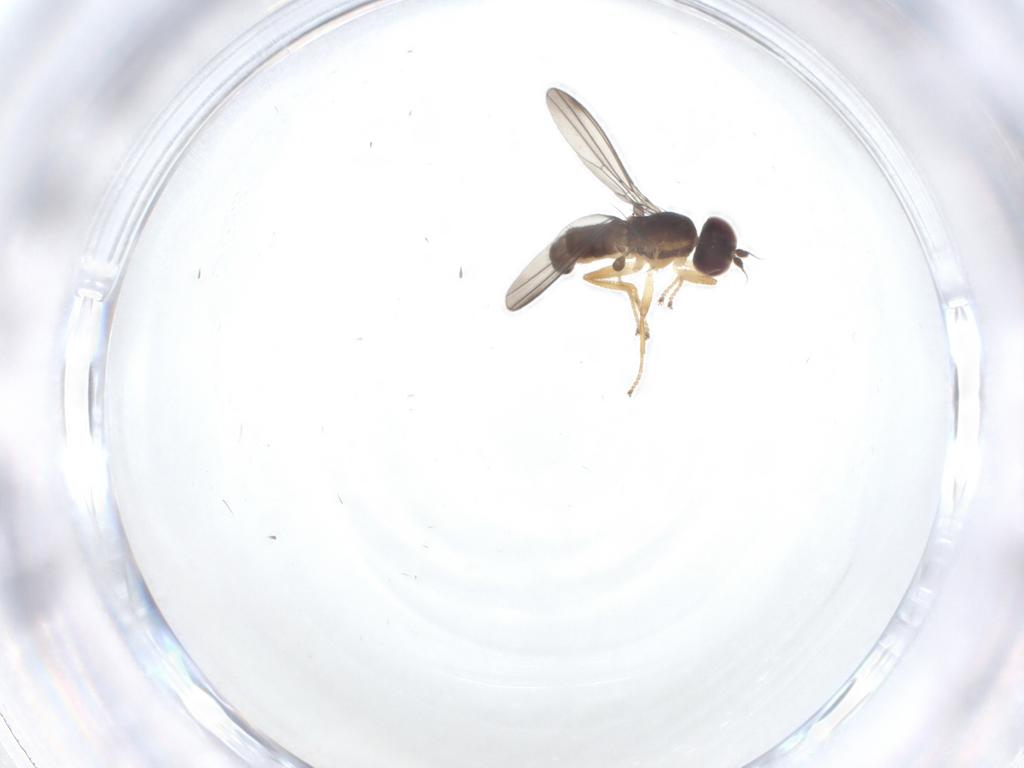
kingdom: Animalia
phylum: Arthropoda
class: Insecta
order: Diptera
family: Anthomyzidae
